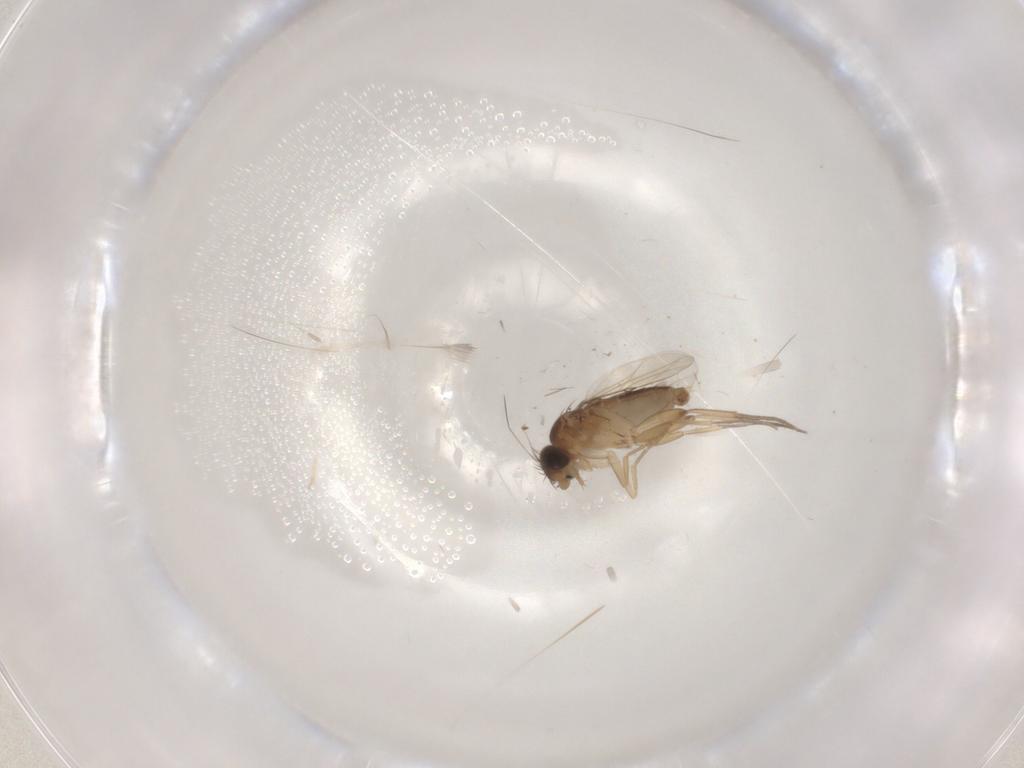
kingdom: Animalia
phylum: Arthropoda
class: Insecta
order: Diptera
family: Phoridae
